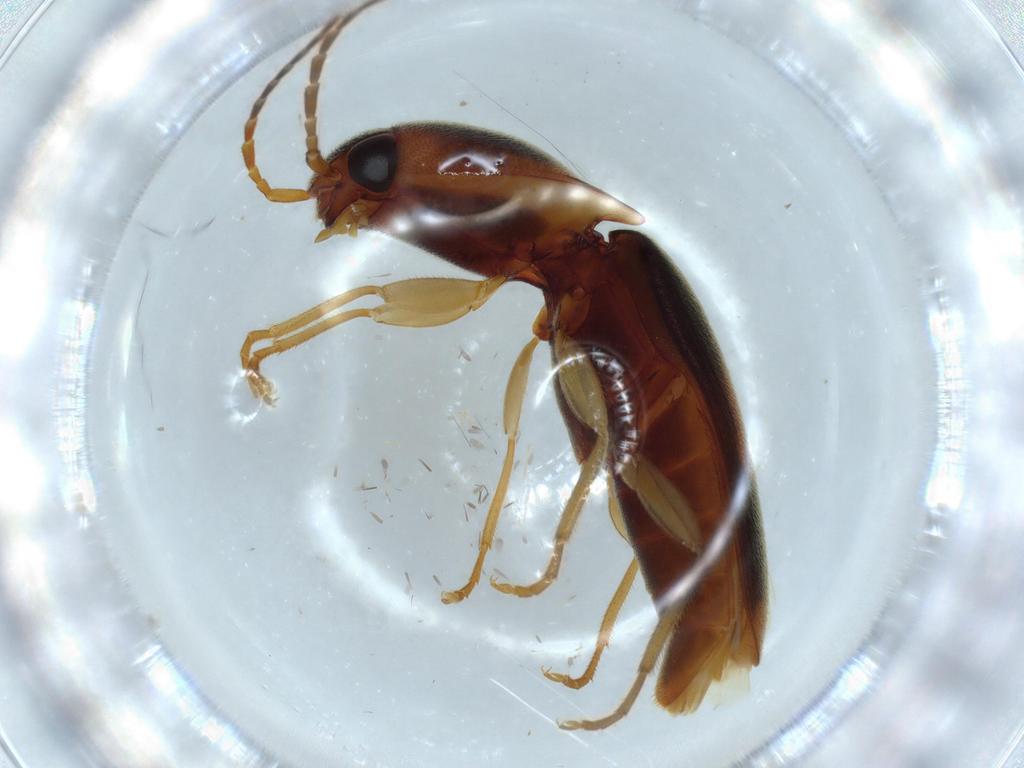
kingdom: Animalia
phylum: Arthropoda
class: Insecta
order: Coleoptera
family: Elateridae
